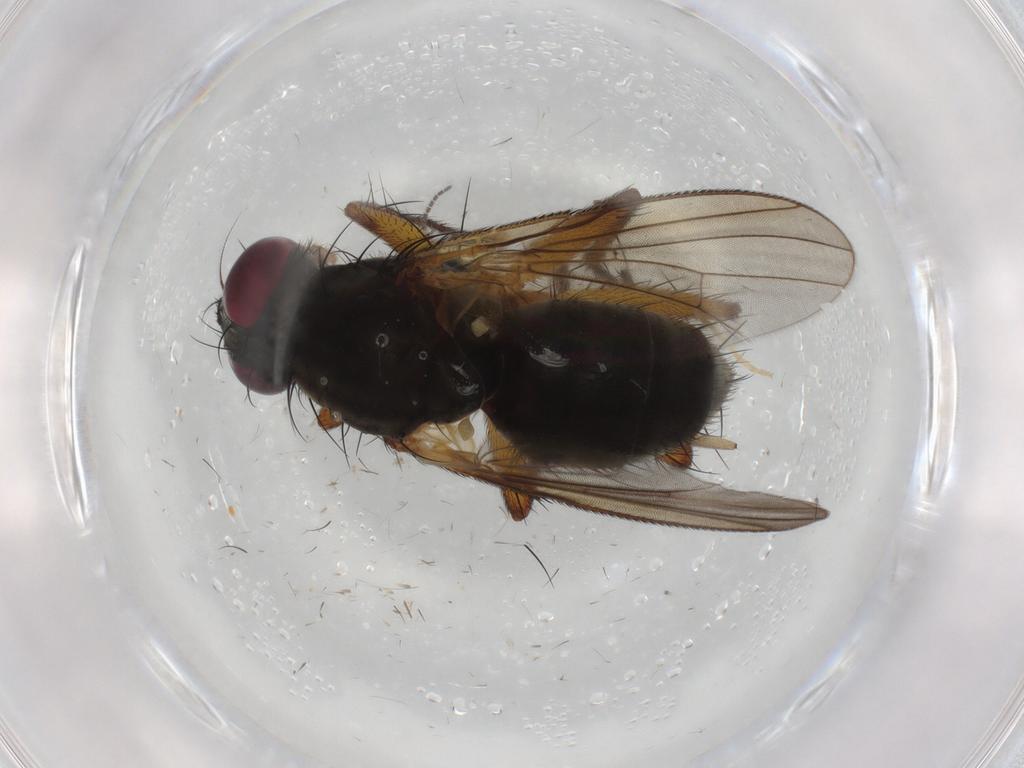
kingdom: Animalia
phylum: Arthropoda
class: Insecta
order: Diptera
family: Muscidae
